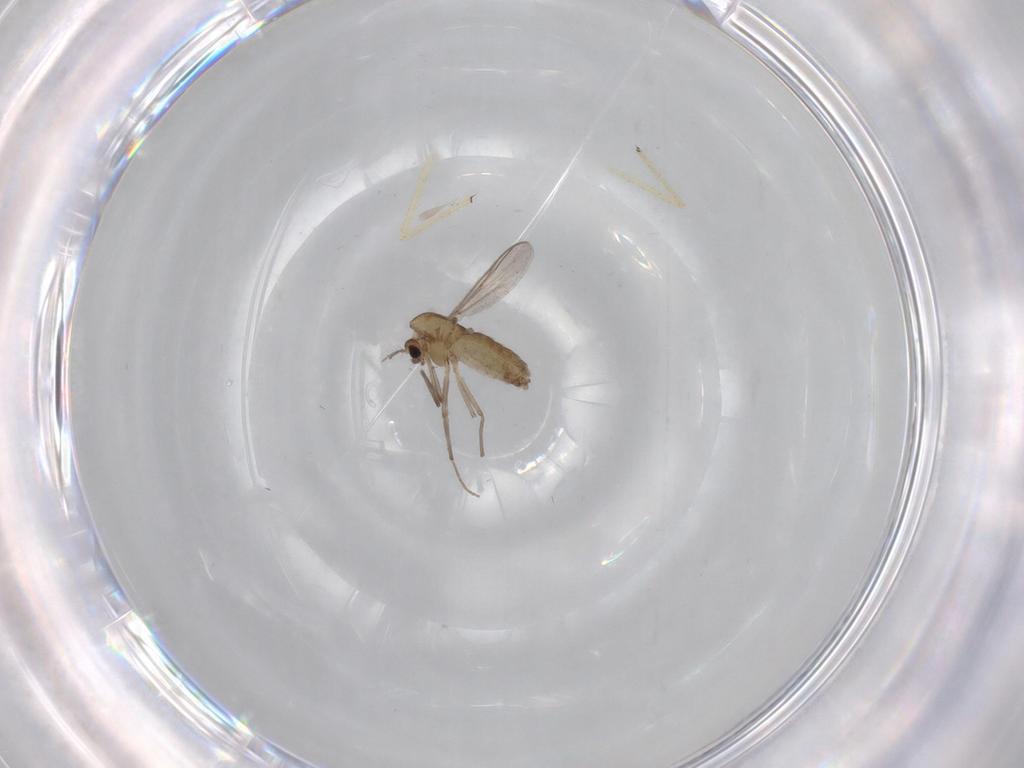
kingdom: Animalia
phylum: Arthropoda
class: Insecta
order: Diptera
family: Chironomidae
